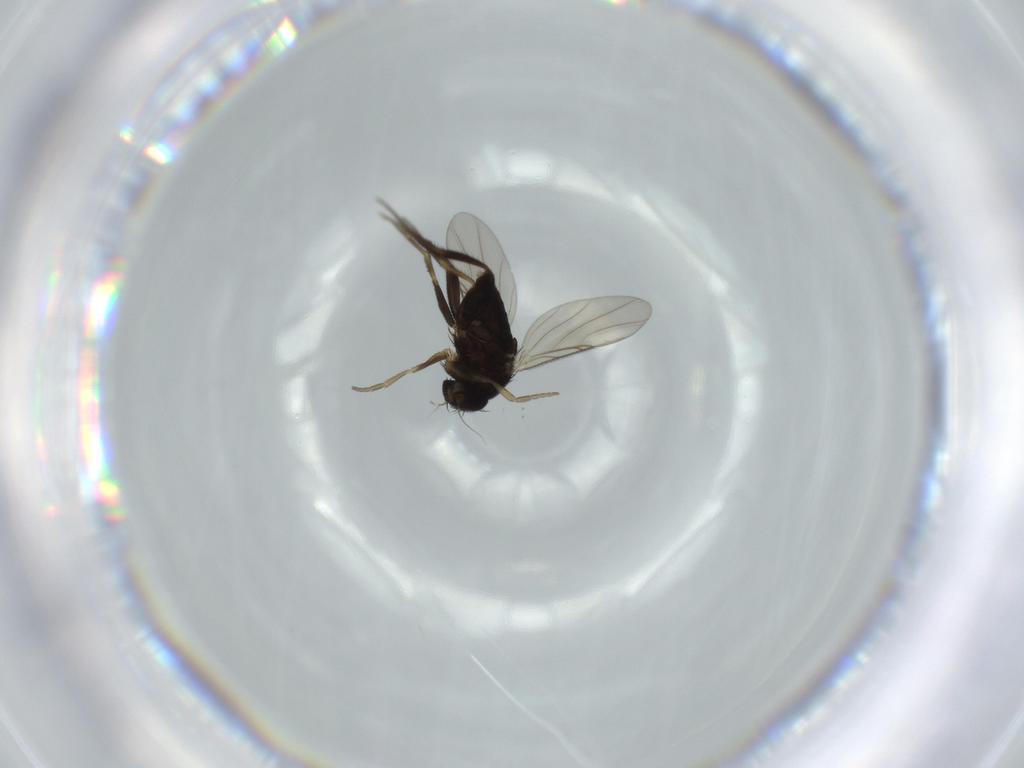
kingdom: Animalia
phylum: Arthropoda
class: Insecta
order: Diptera
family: Phoridae
